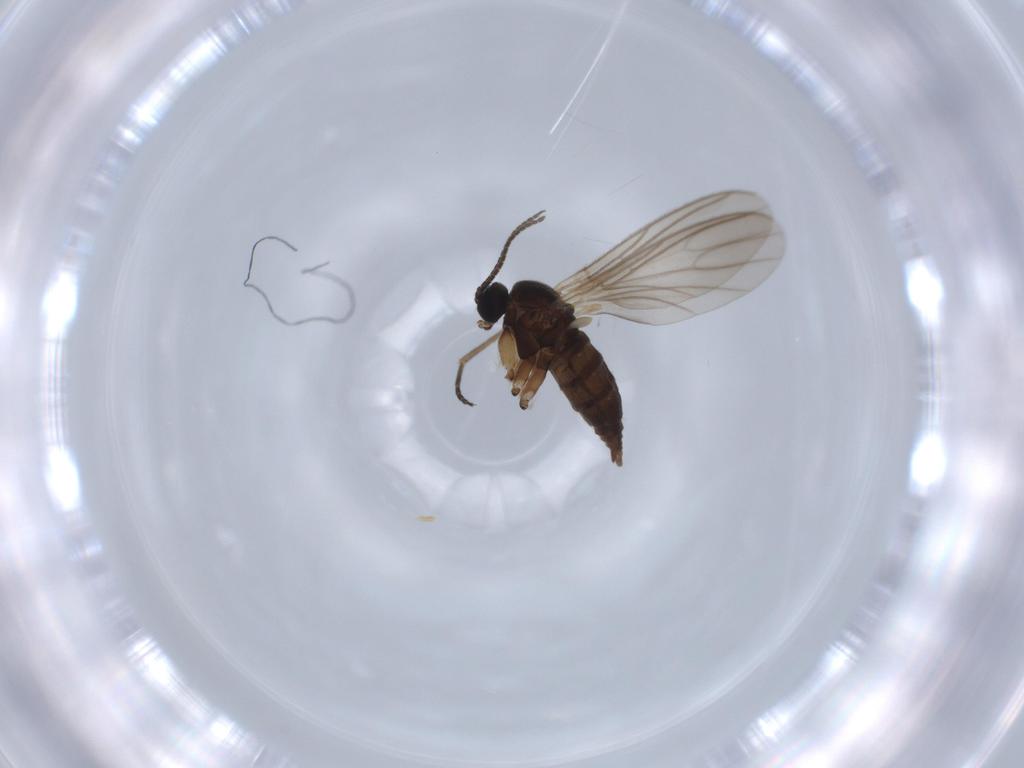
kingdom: Animalia
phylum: Arthropoda
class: Insecta
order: Diptera
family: Sciaridae
